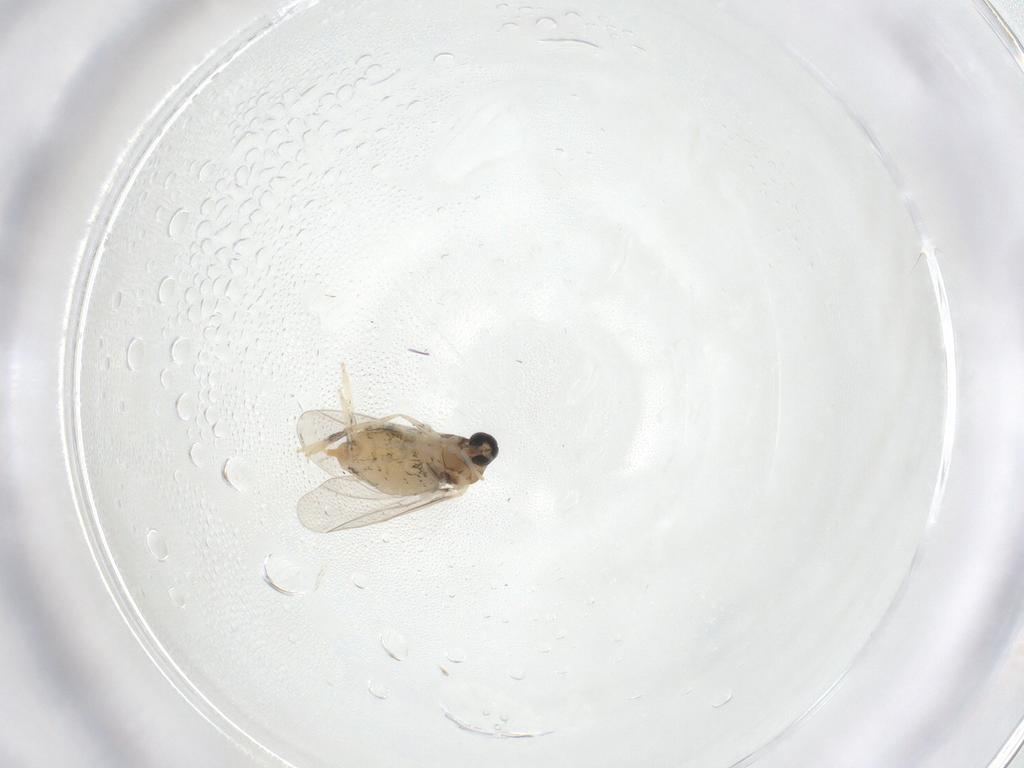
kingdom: Animalia
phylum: Arthropoda
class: Insecta
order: Diptera
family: Cecidomyiidae
